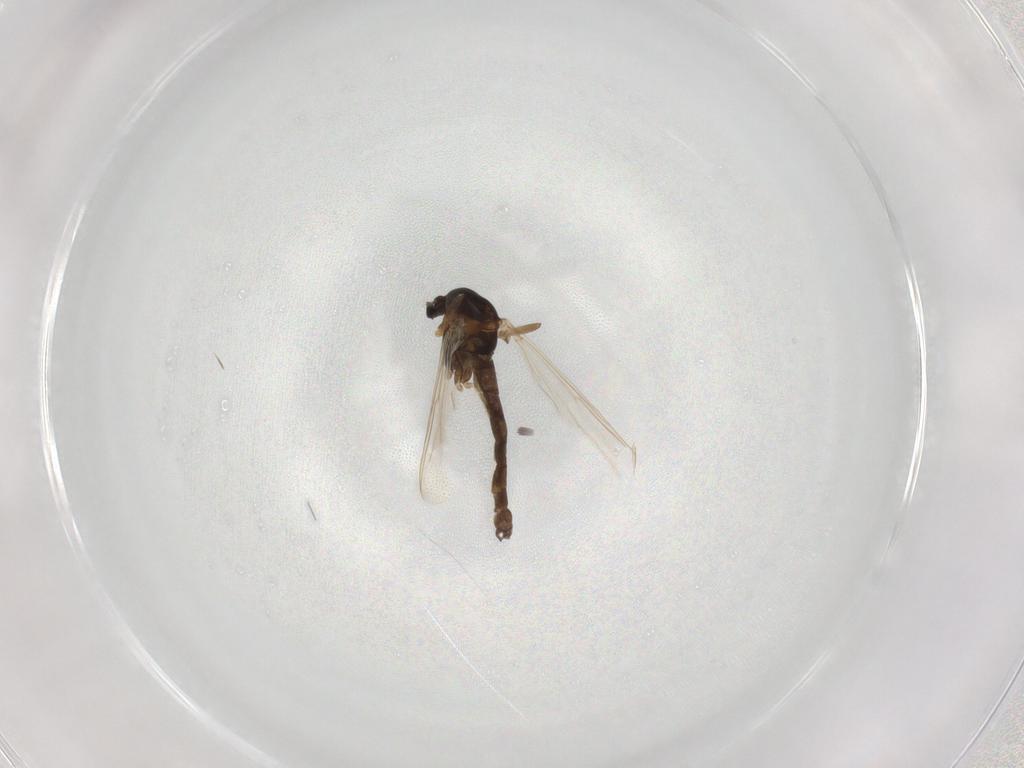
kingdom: Animalia
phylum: Arthropoda
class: Insecta
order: Diptera
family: Chironomidae
